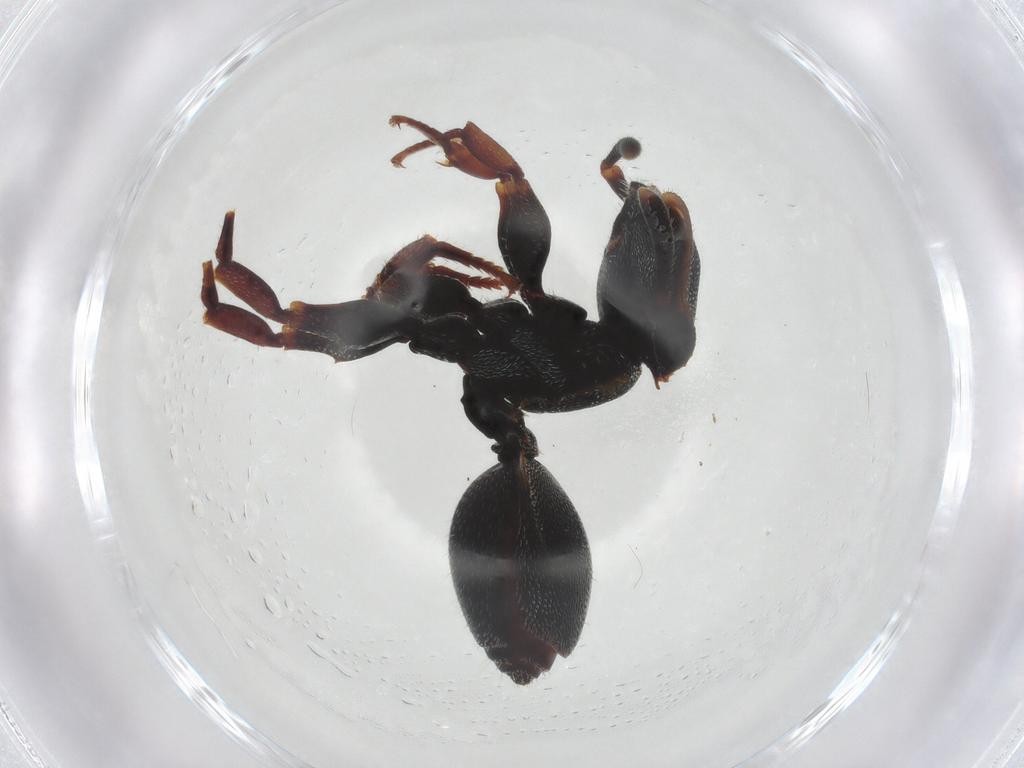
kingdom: Animalia
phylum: Arthropoda
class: Insecta
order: Hymenoptera
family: Formicidae
